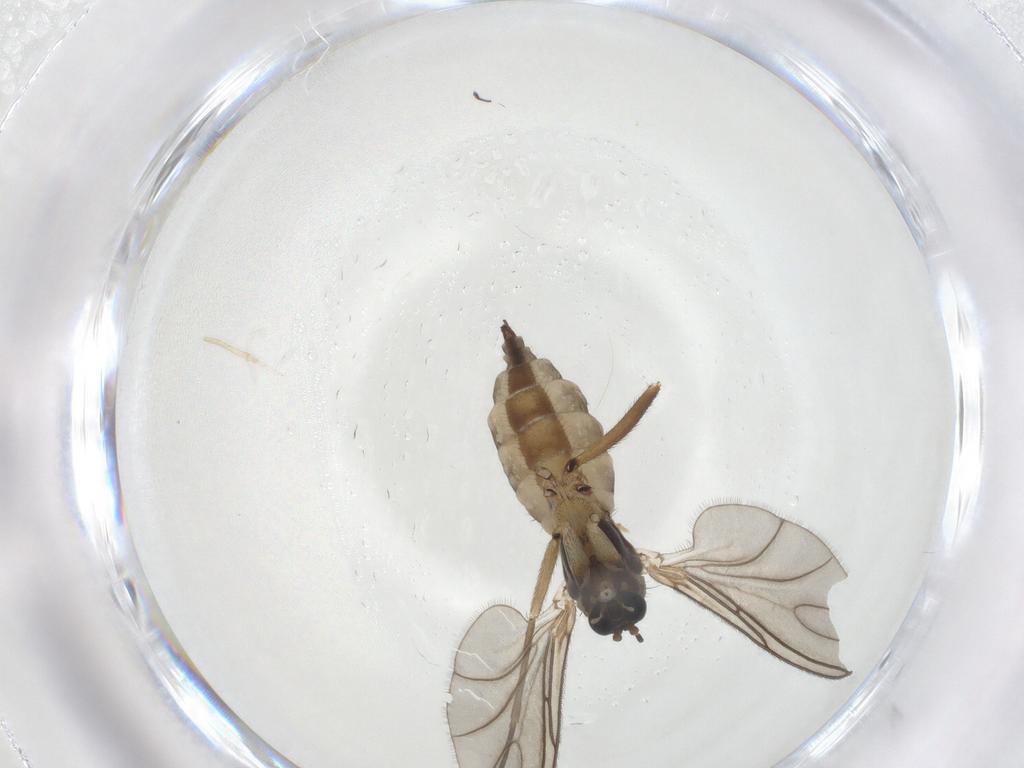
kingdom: Animalia
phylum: Arthropoda
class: Insecta
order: Diptera
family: Sciaridae
